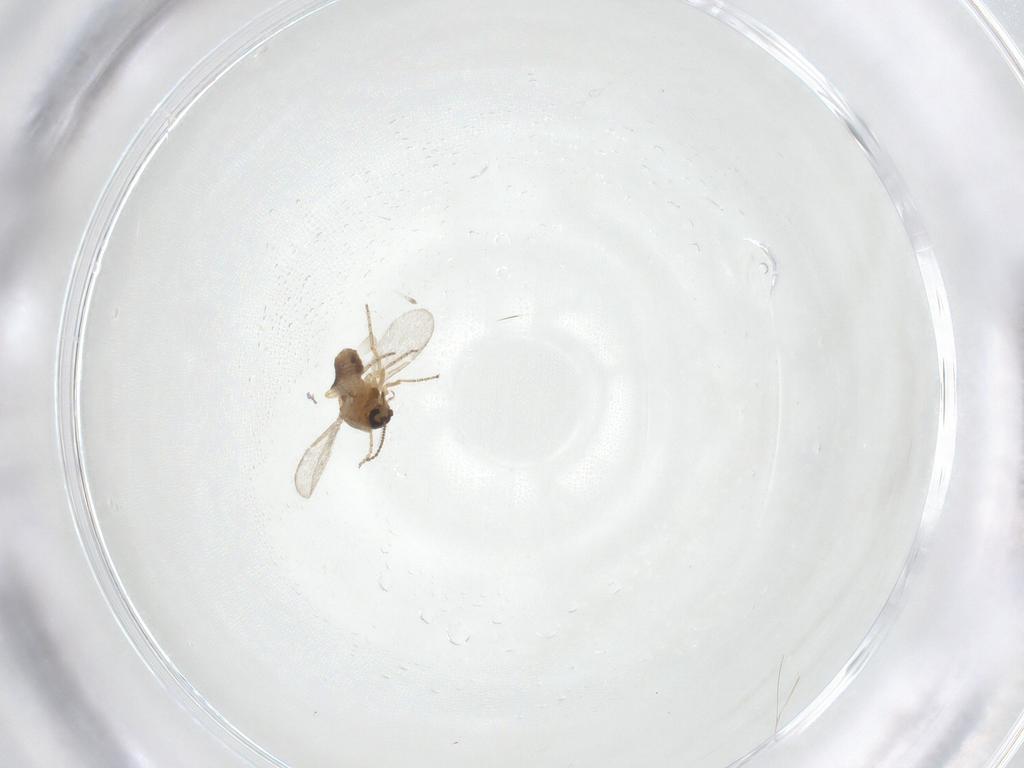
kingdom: Animalia
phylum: Arthropoda
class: Insecta
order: Diptera
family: Ceratopogonidae
